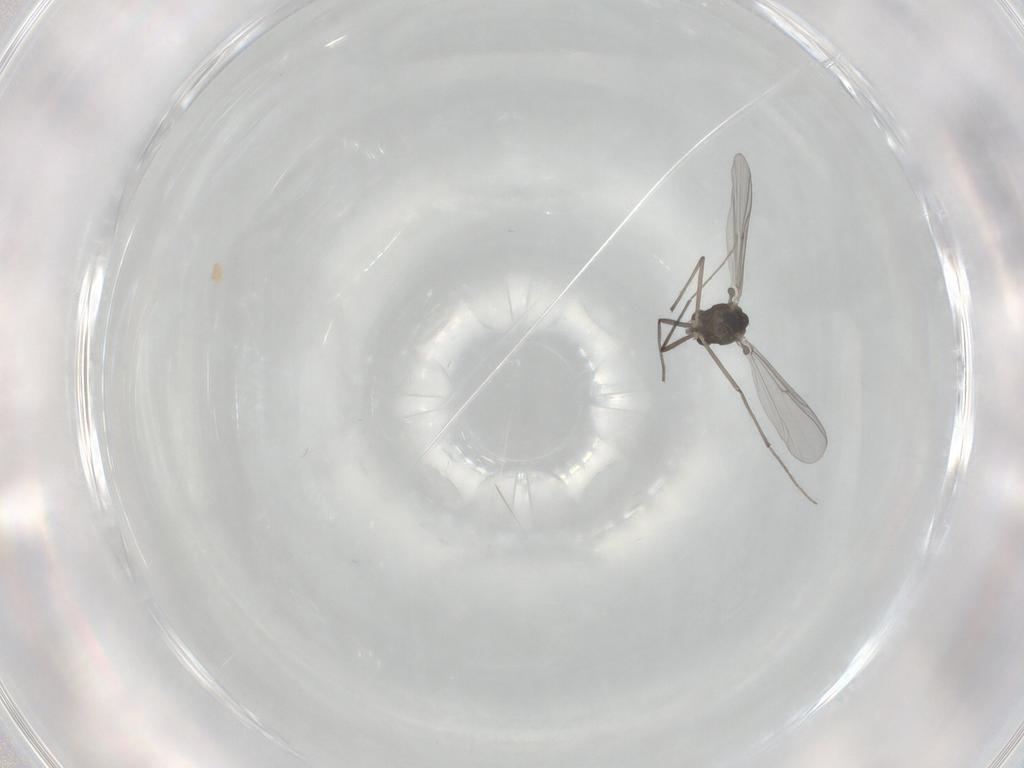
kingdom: Animalia
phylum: Arthropoda
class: Insecta
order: Diptera
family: Chironomidae
